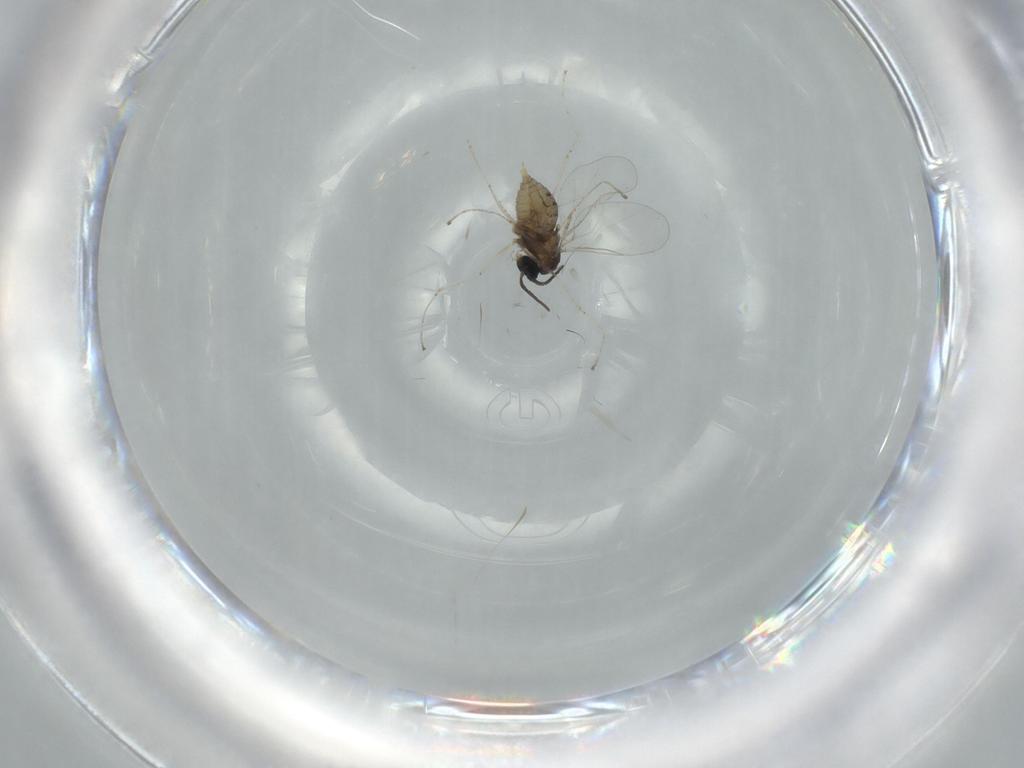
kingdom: Animalia
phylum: Arthropoda
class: Insecta
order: Diptera
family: Cecidomyiidae
